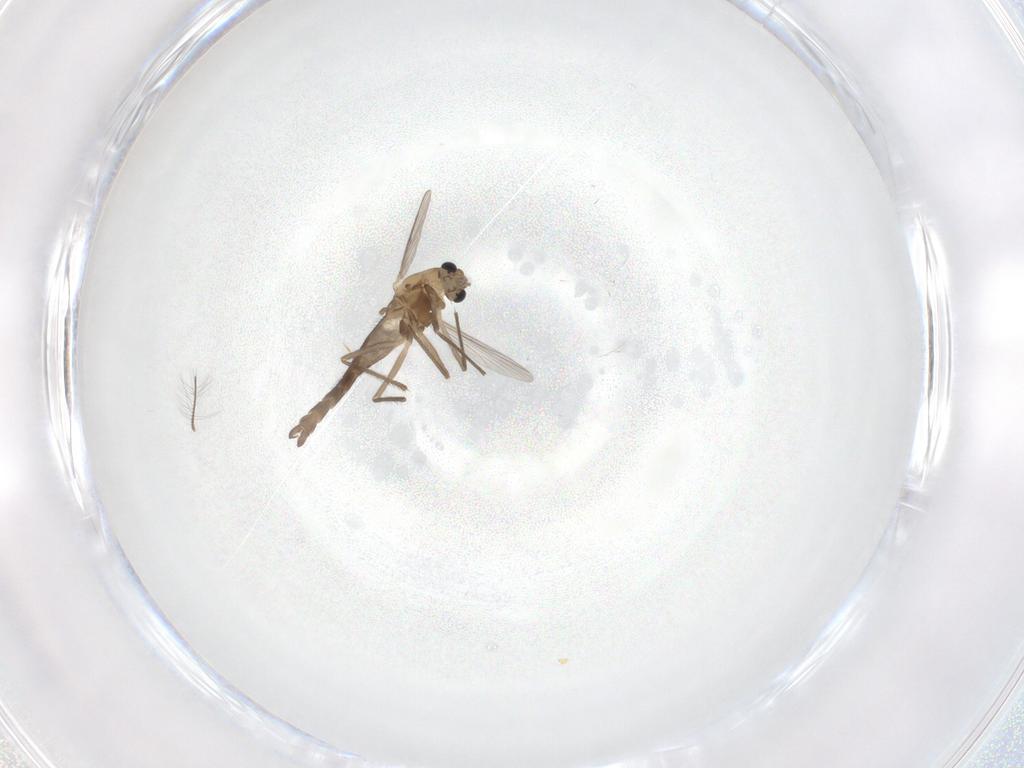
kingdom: Animalia
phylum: Arthropoda
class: Insecta
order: Diptera
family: Chironomidae
